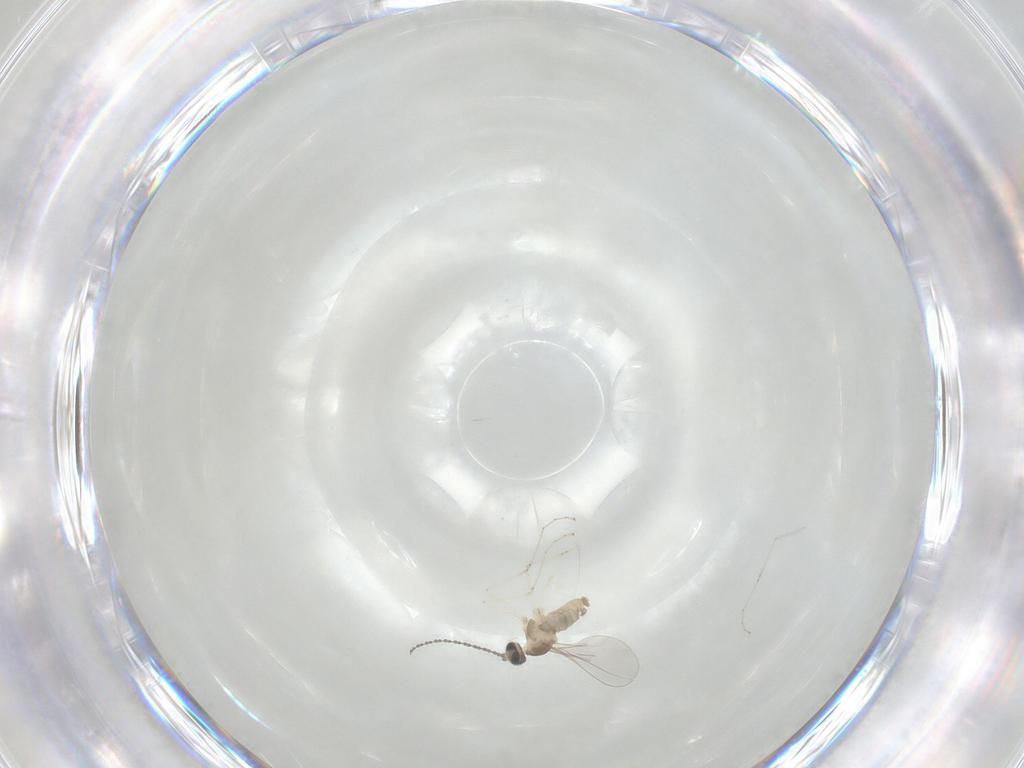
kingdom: Animalia
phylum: Arthropoda
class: Insecta
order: Diptera
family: Cecidomyiidae
